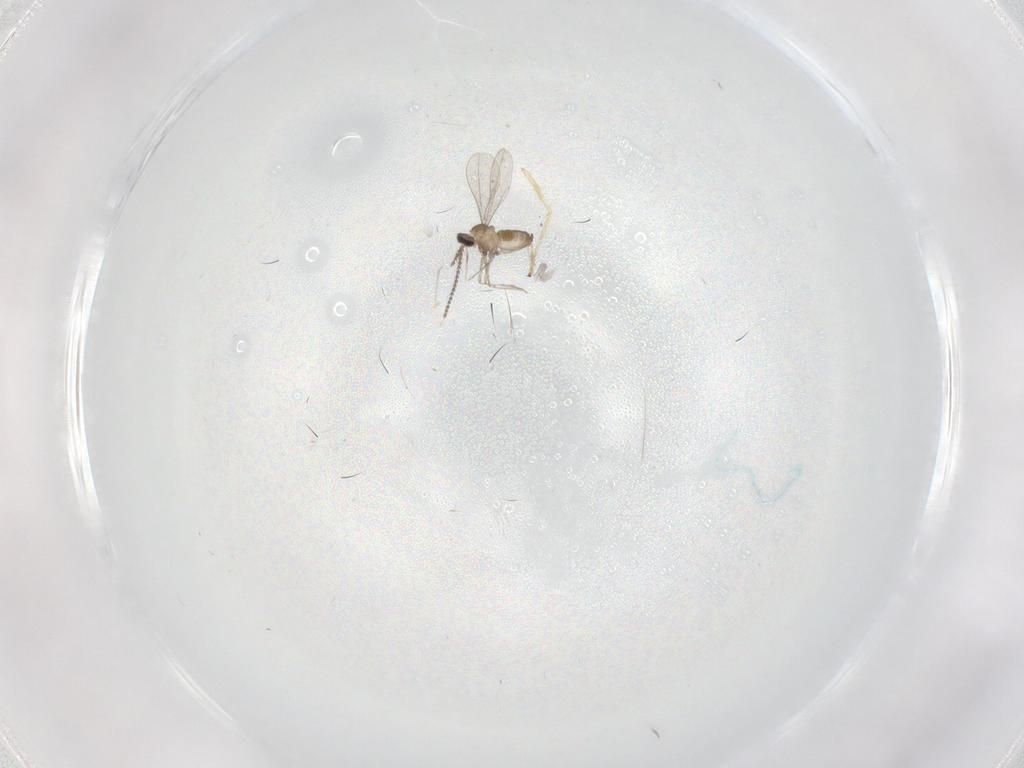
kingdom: Animalia
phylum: Arthropoda
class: Insecta
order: Diptera
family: Chironomidae
